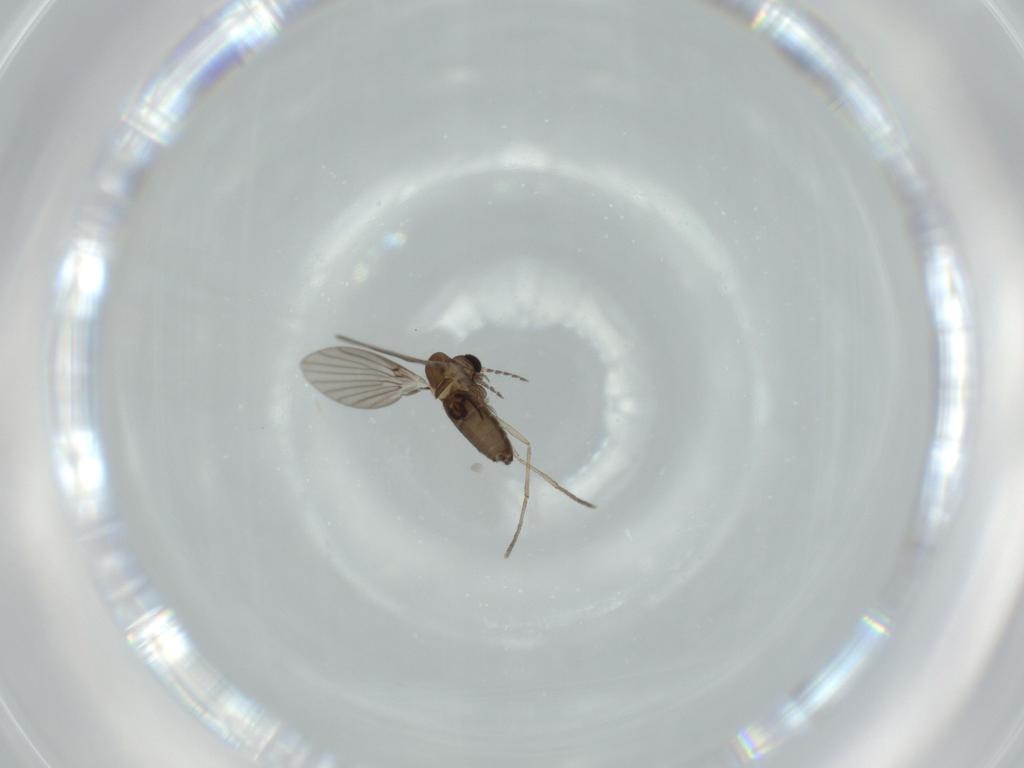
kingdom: Animalia
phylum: Arthropoda
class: Insecta
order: Diptera
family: Psychodidae
